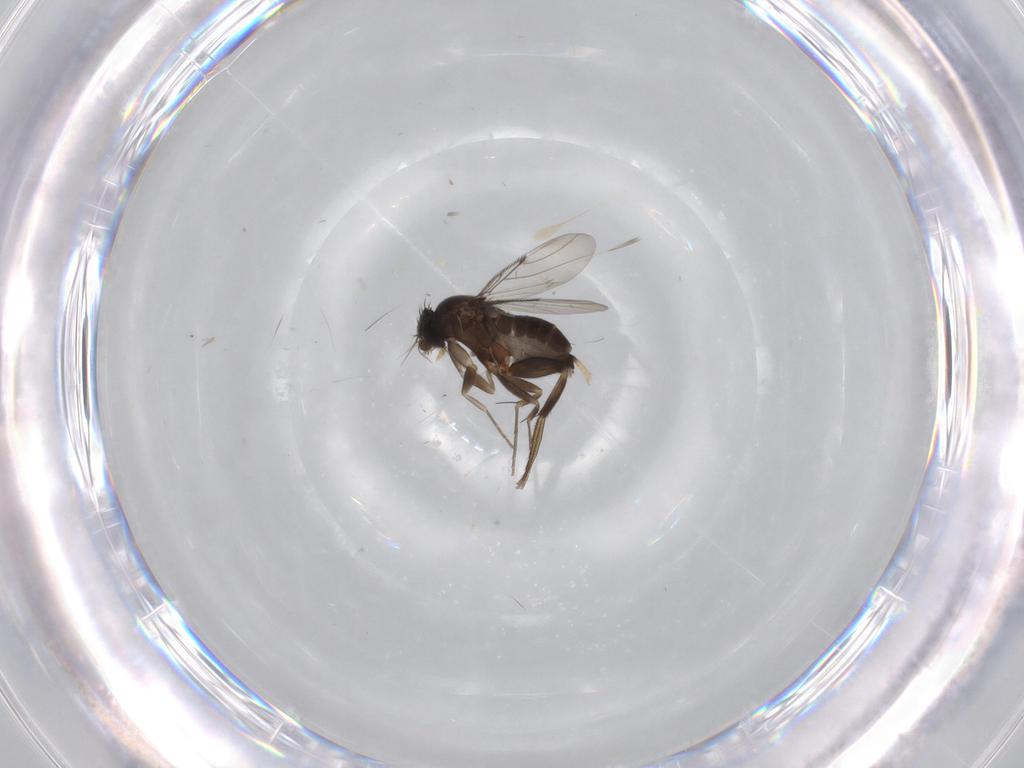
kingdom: Animalia
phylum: Arthropoda
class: Insecta
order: Diptera
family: Phoridae
